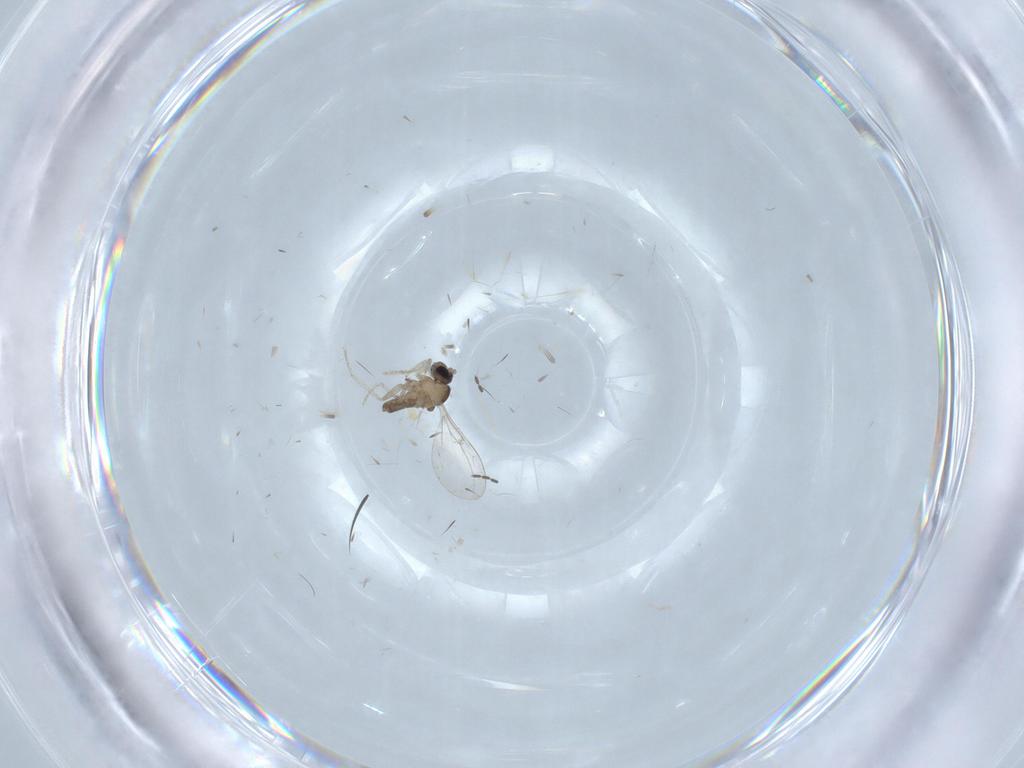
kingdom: Animalia
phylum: Arthropoda
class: Insecta
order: Diptera
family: Cecidomyiidae
